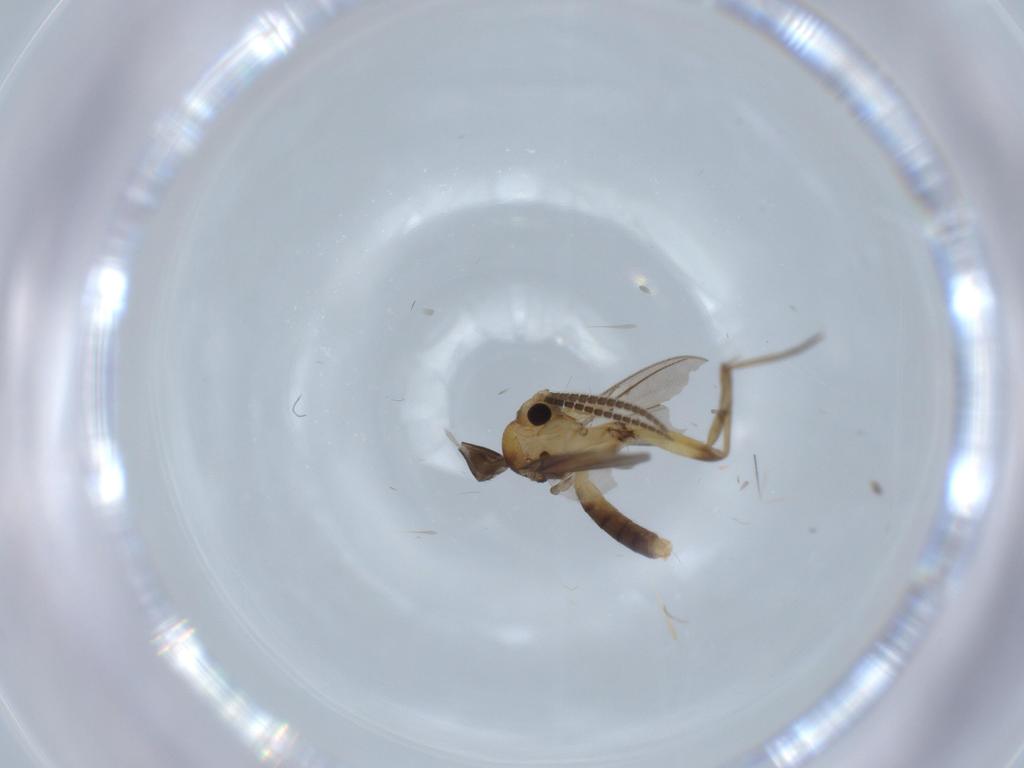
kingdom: Animalia
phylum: Arthropoda
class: Insecta
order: Diptera
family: Mycetophilidae
